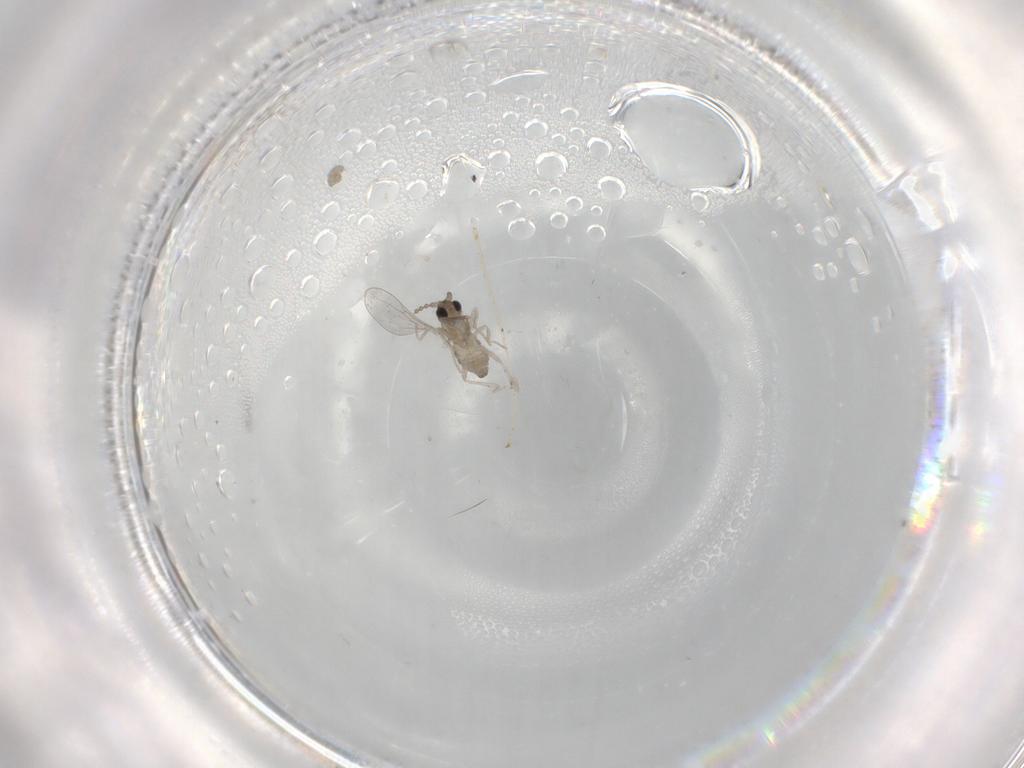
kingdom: Animalia
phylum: Arthropoda
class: Insecta
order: Diptera
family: Cecidomyiidae
